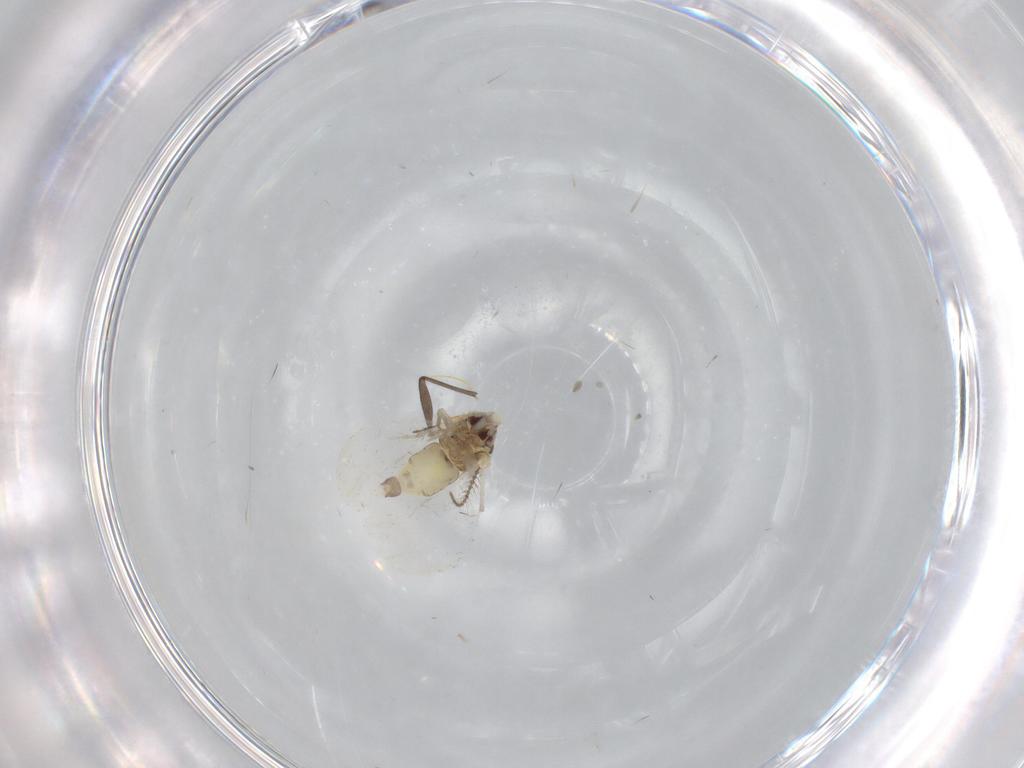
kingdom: Animalia
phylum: Arthropoda
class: Insecta
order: Hemiptera
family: Aleyrodidae
